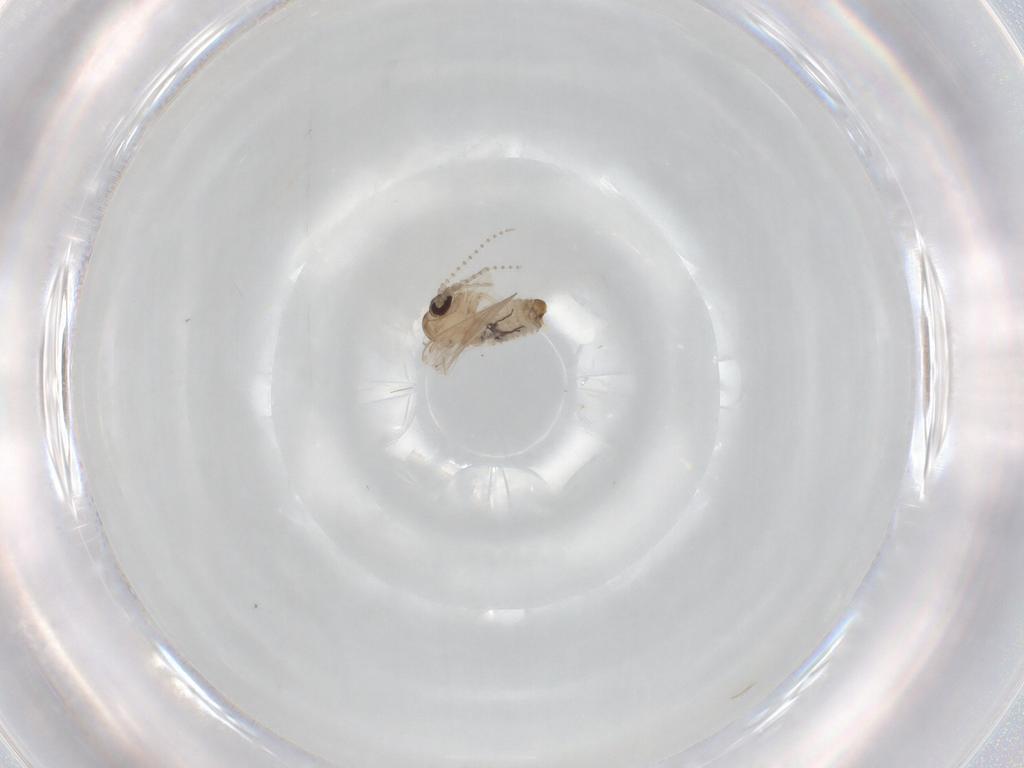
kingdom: Animalia
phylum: Arthropoda
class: Insecta
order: Diptera
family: Psychodidae
